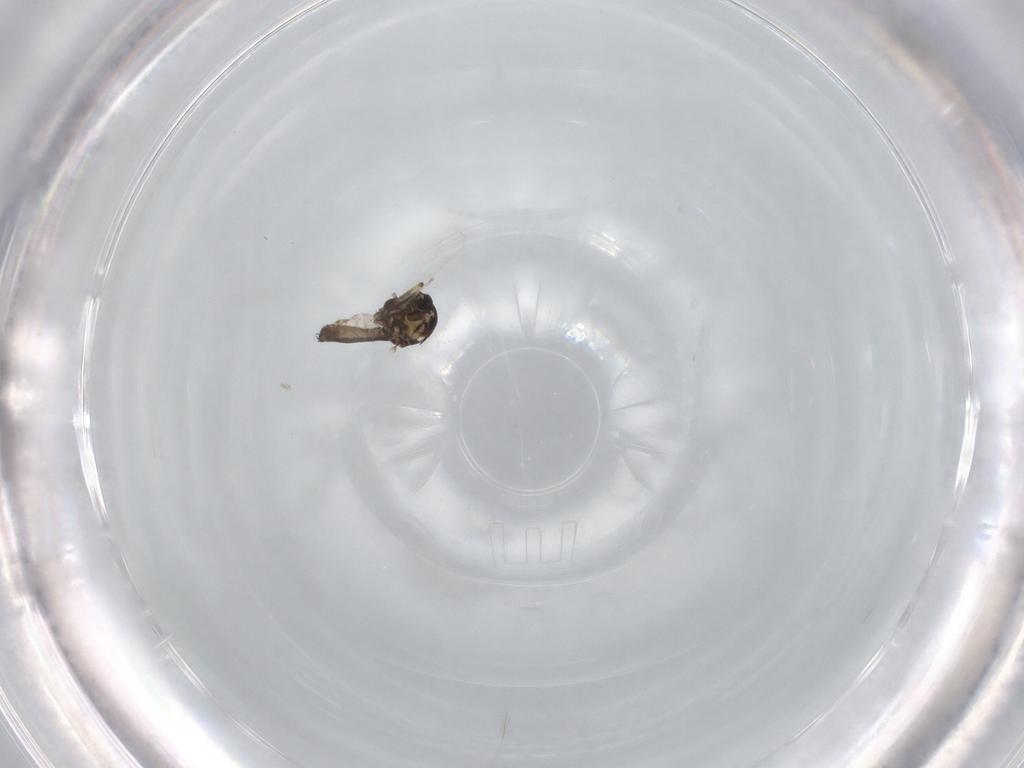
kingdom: Animalia
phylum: Arthropoda
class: Insecta
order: Diptera
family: Ceratopogonidae
